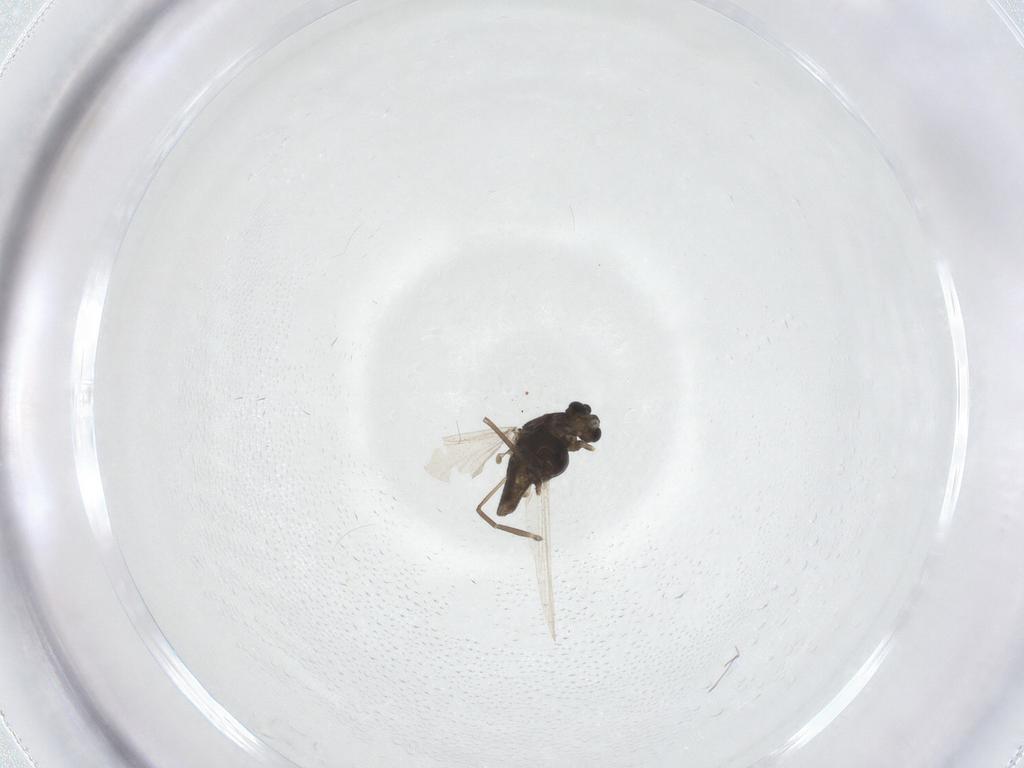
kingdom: Animalia
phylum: Arthropoda
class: Insecta
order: Diptera
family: Chironomidae
